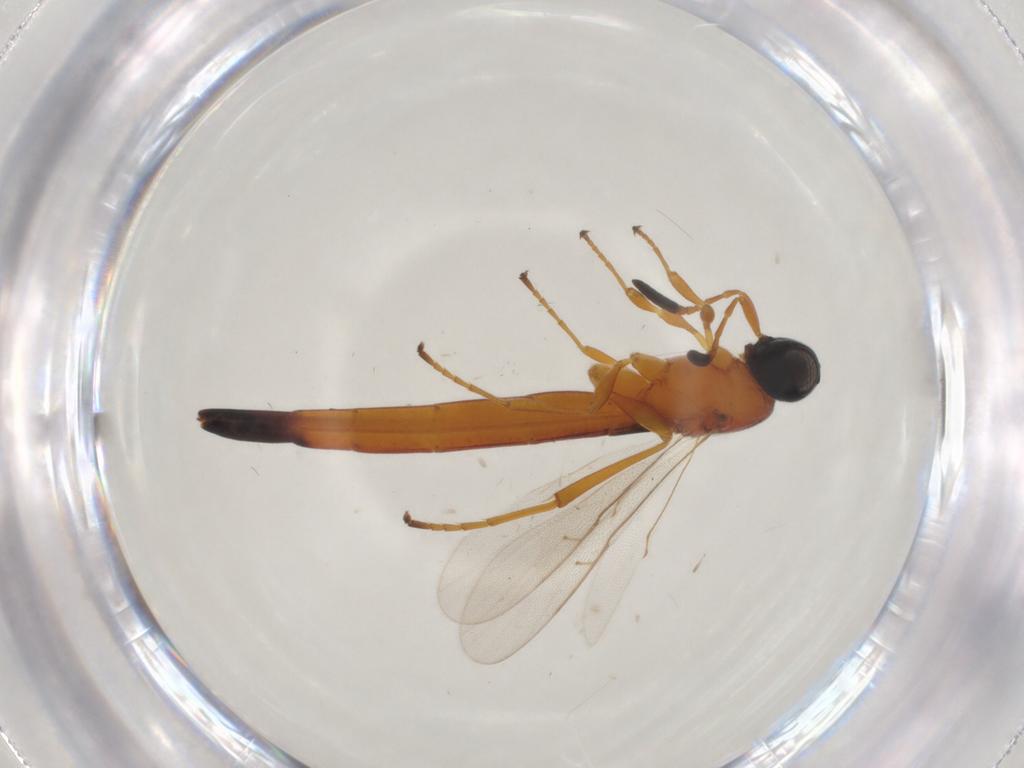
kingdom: Animalia
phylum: Arthropoda
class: Insecta
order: Hymenoptera
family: Scelionidae
